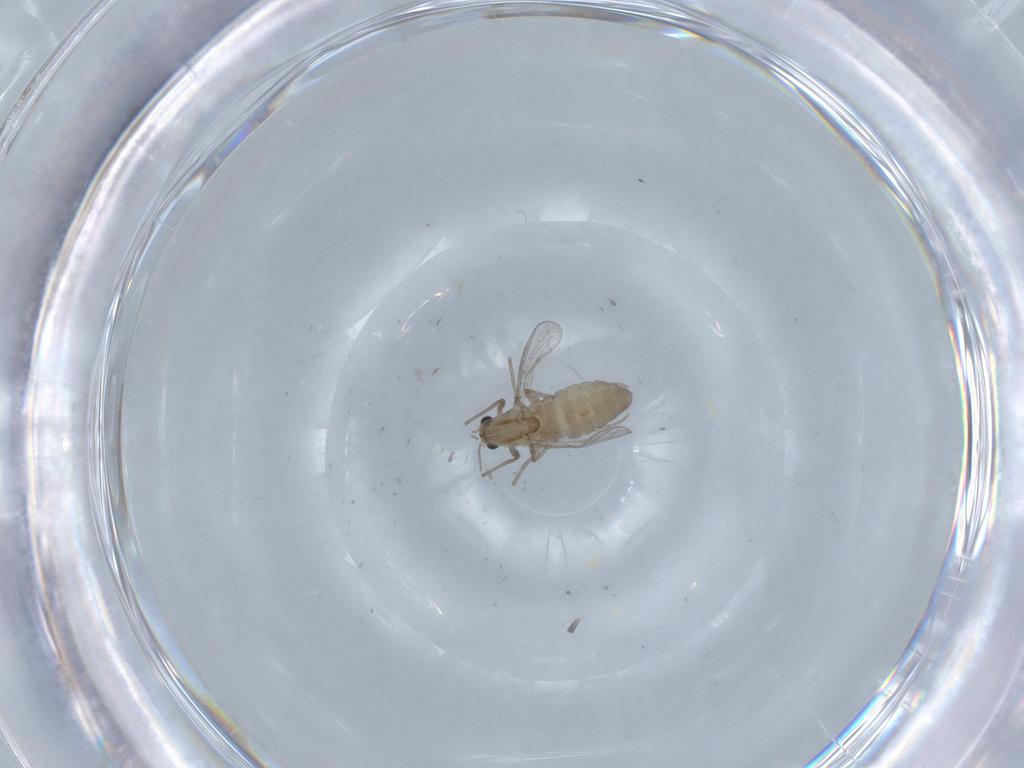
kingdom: Animalia
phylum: Arthropoda
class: Insecta
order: Diptera
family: Chironomidae
